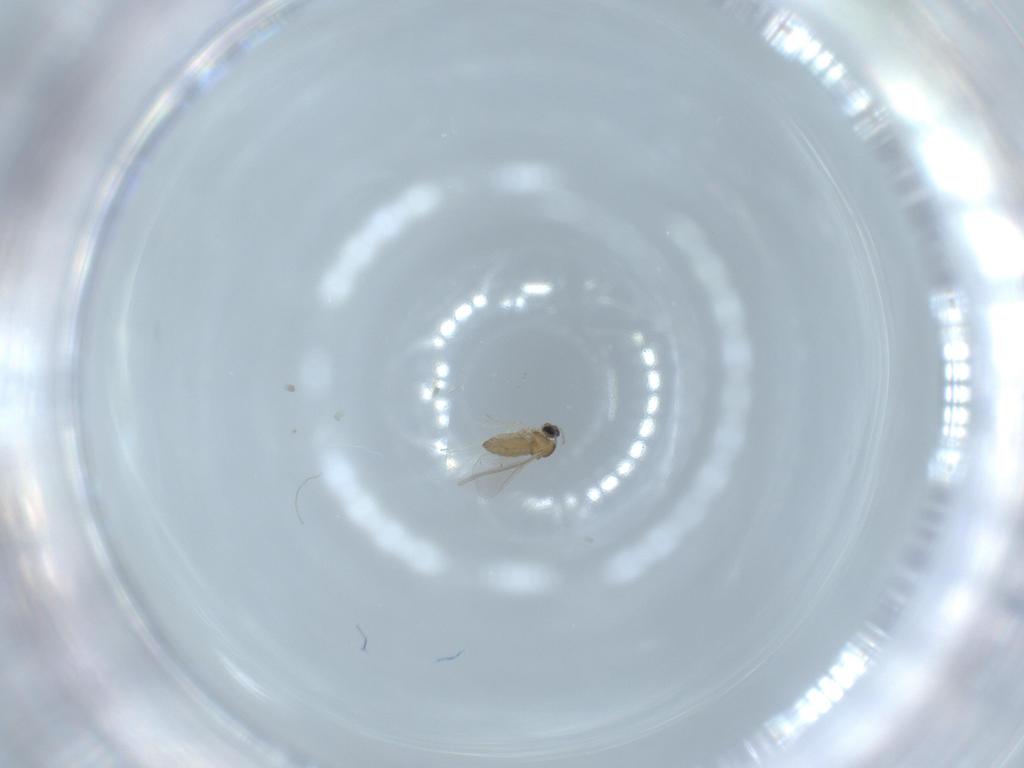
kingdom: Animalia
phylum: Arthropoda
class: Insecta
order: Diptera
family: Cecidomyiidae
